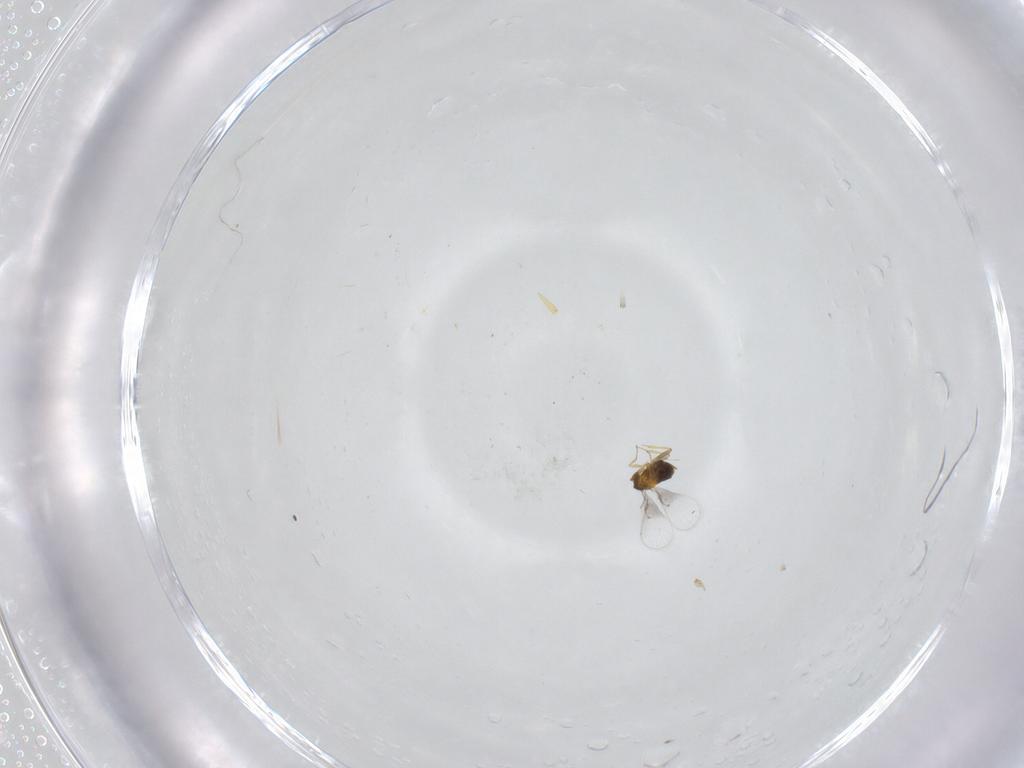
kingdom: Animalia
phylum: Arthropoda
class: Insecta
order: Hymenoptera
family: Trichogrammatidae
